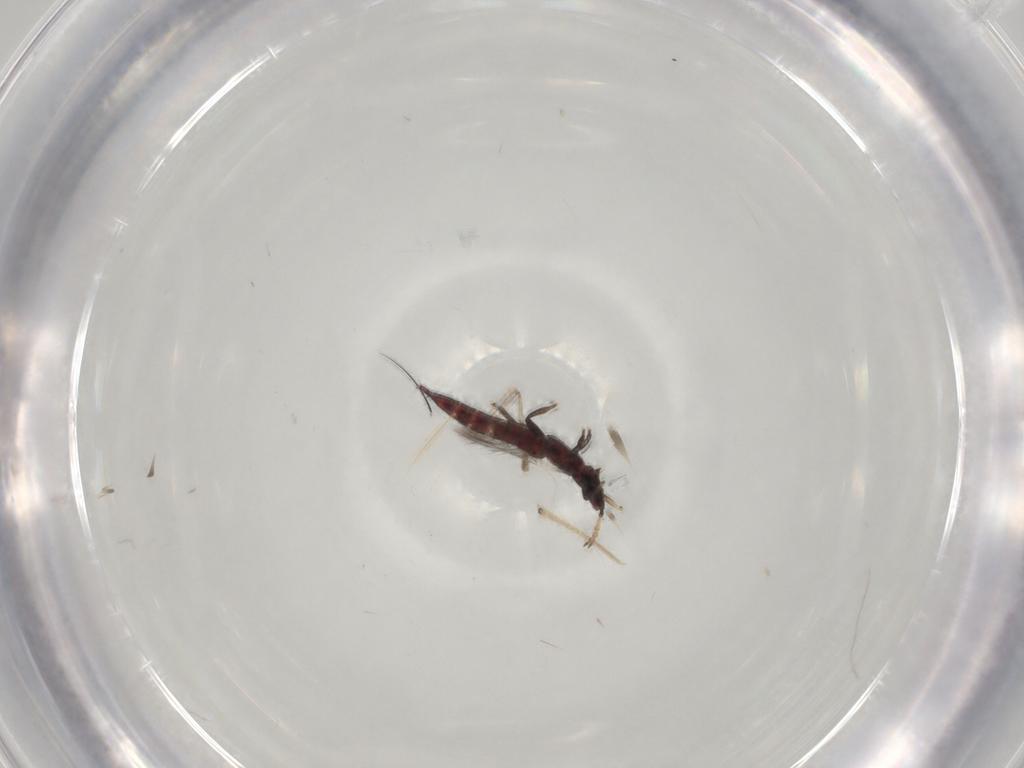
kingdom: Animalia
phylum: Arthropoda
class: Insecta
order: Thysanoptera
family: Phlaeothripidae
